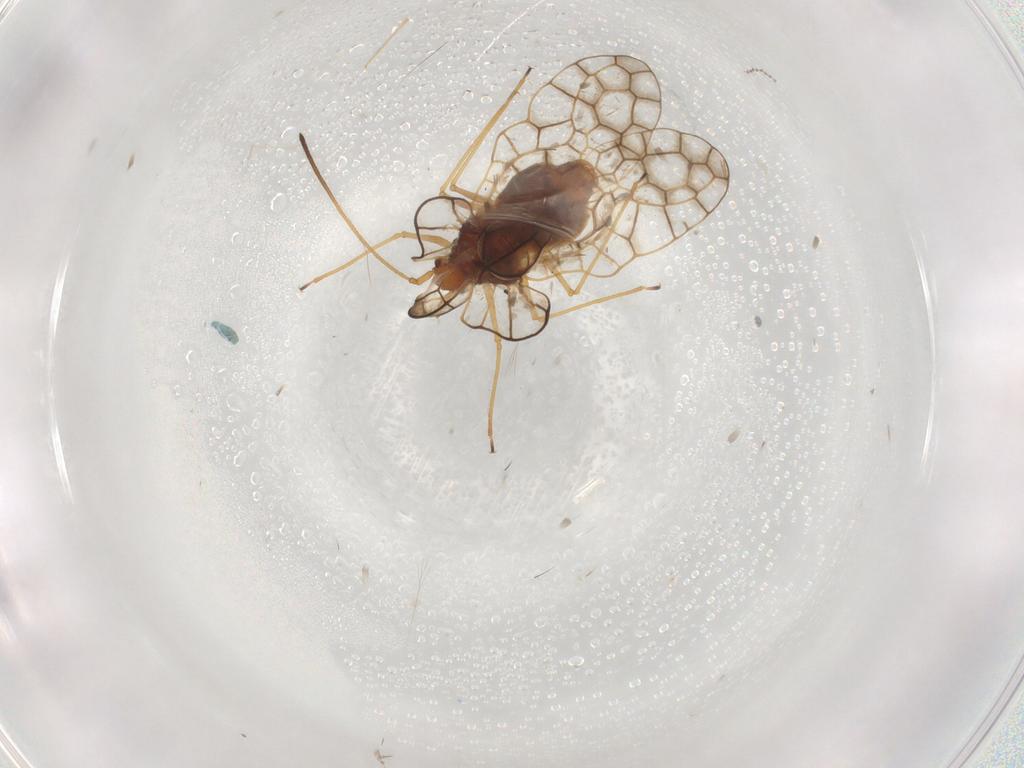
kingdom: Animalia
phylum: Arthropoda
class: Insecta
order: Hemiptera
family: Tingidae
